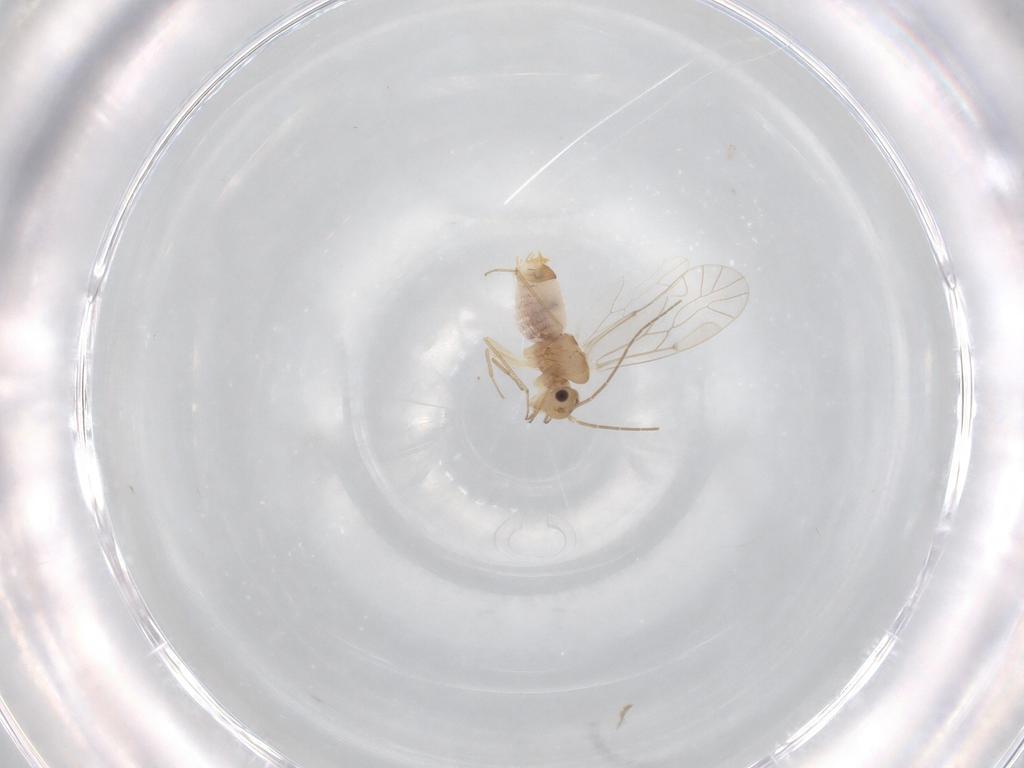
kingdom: Animalia
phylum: Arthropoda
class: Insecta
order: Psocodea
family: Lachesillidae
